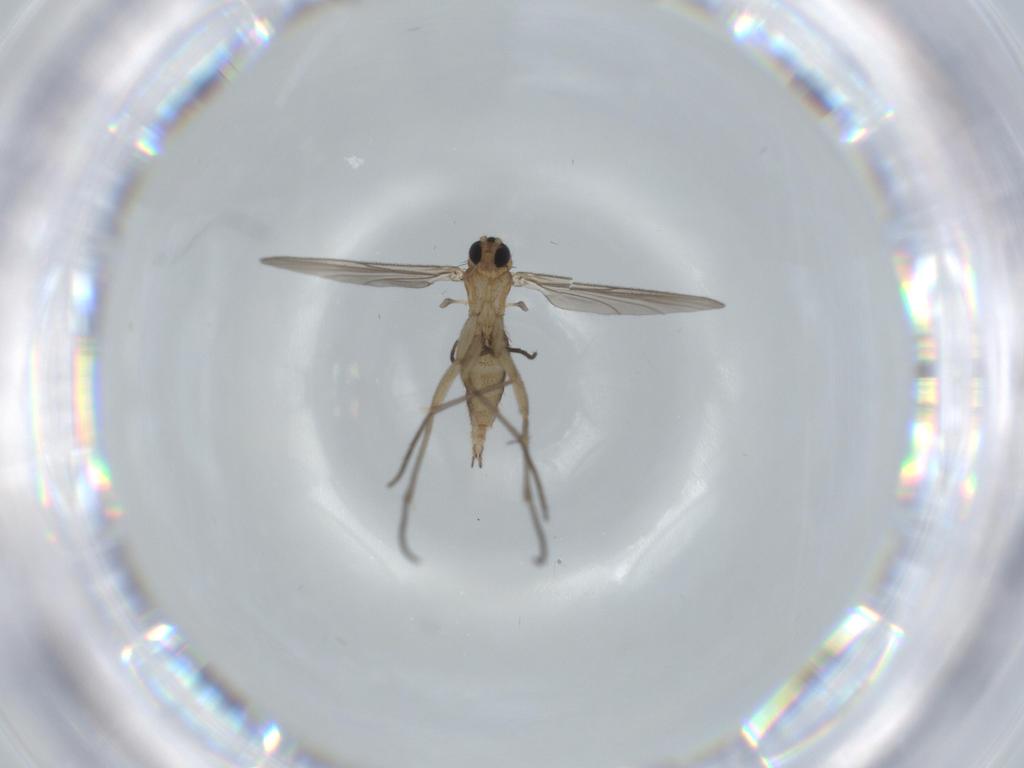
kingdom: Animalia
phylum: Arthropoda
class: Insecta
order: Diptera
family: Sciaridae
